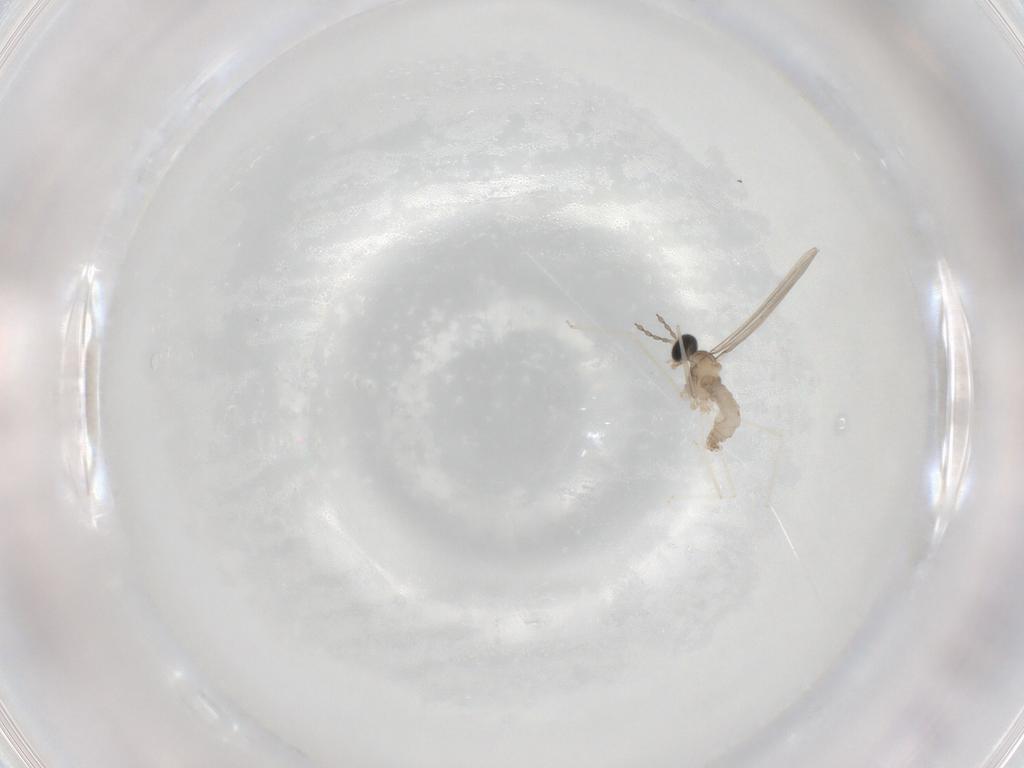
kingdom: Animalia
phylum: Arthropoda
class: Insecta
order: Diptera
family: Cecidomyiidae
